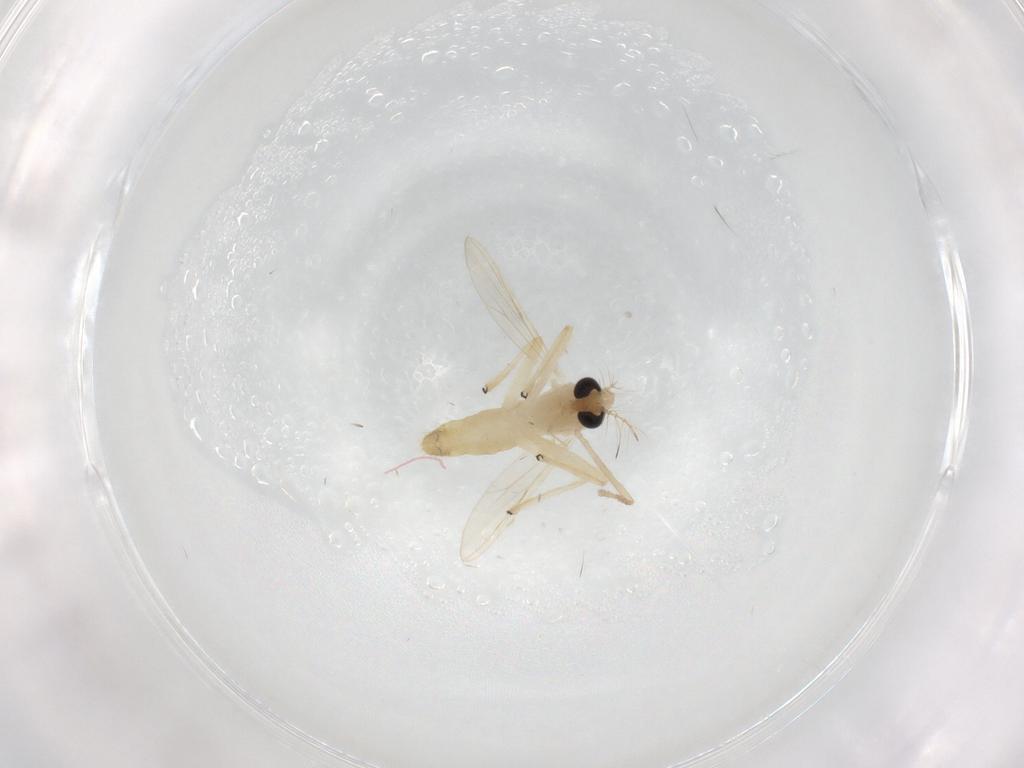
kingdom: Animalia
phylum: Arthropoda
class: Insecta
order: Diptera
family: Chironomidae
